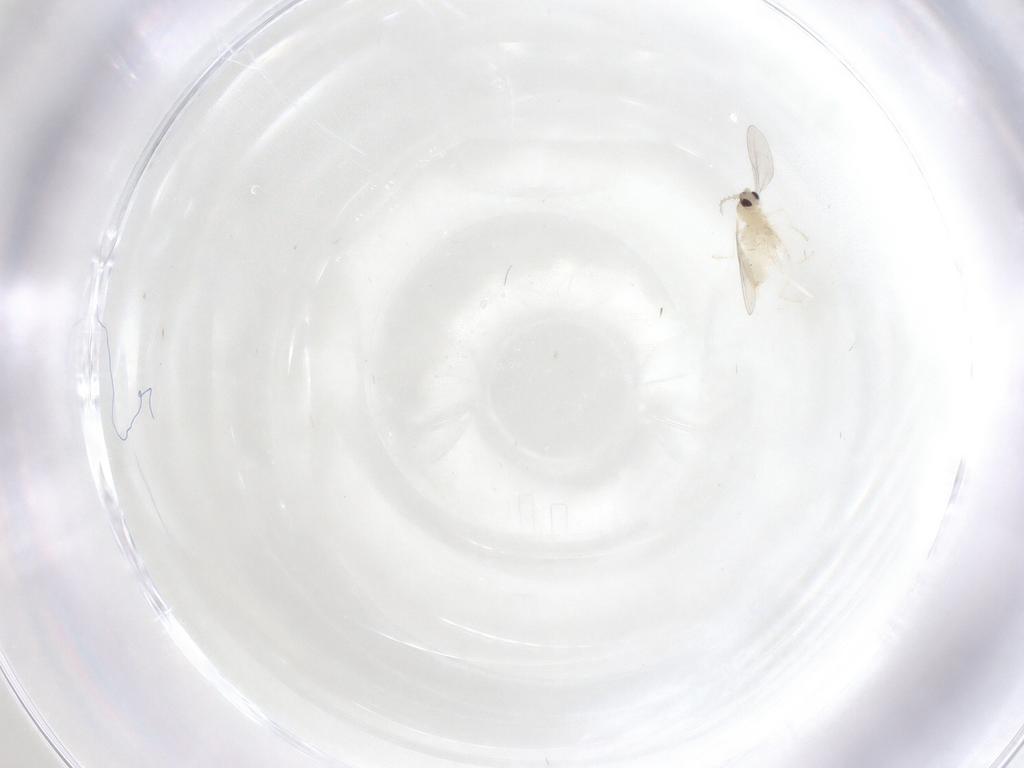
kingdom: Animalia
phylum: Arthropoda
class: Insecta
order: Diptera
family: Cecidomyiidae
